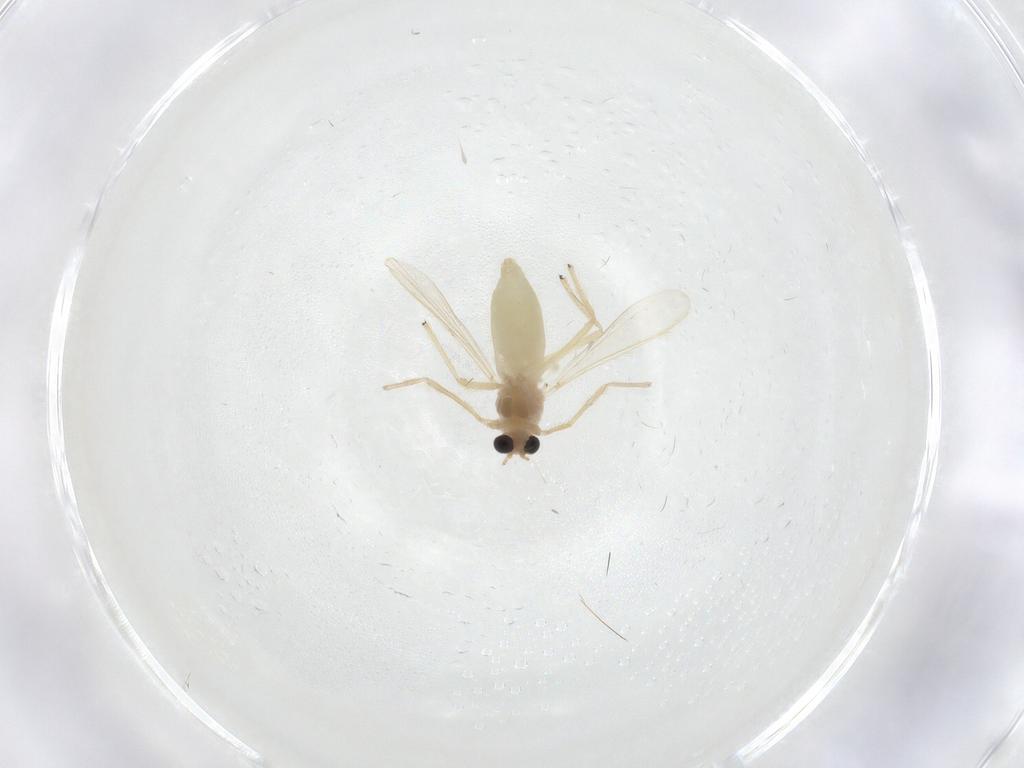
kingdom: Animalia
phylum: Arthropoda
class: Insecta
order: Diptera
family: Chironomidae
